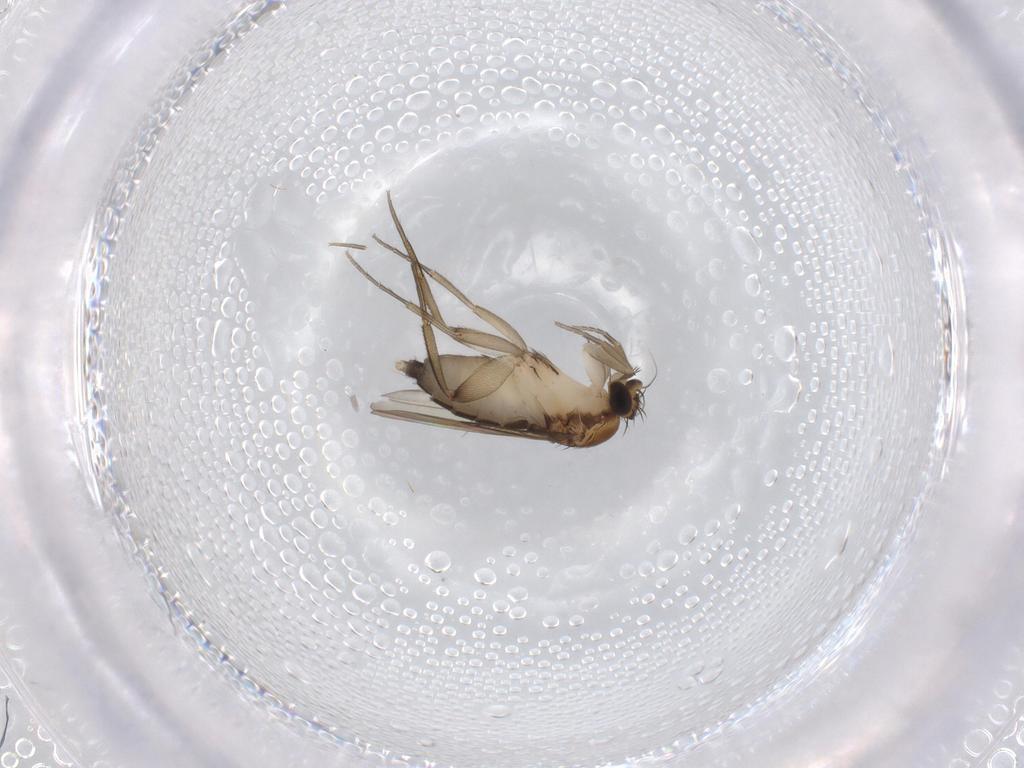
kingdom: Animalia
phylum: Arthropoda
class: Insecta
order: Diptera
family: Phoridae
